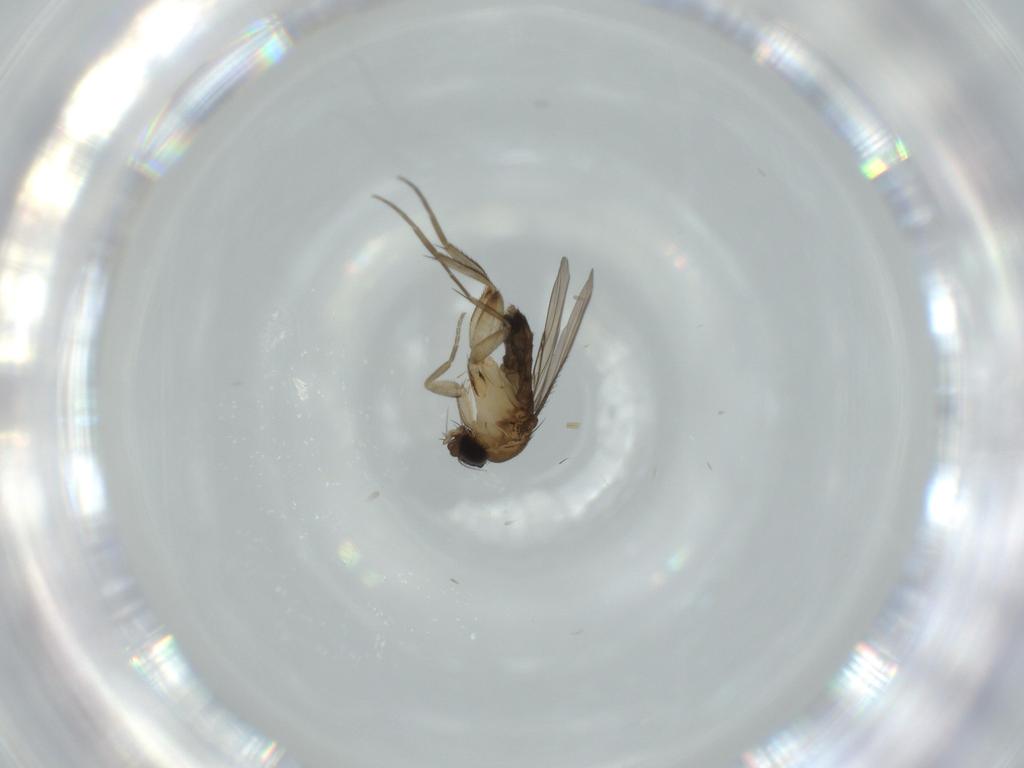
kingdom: Animalia
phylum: Arthropoda
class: Insecta
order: Diptera
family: Phoridae
